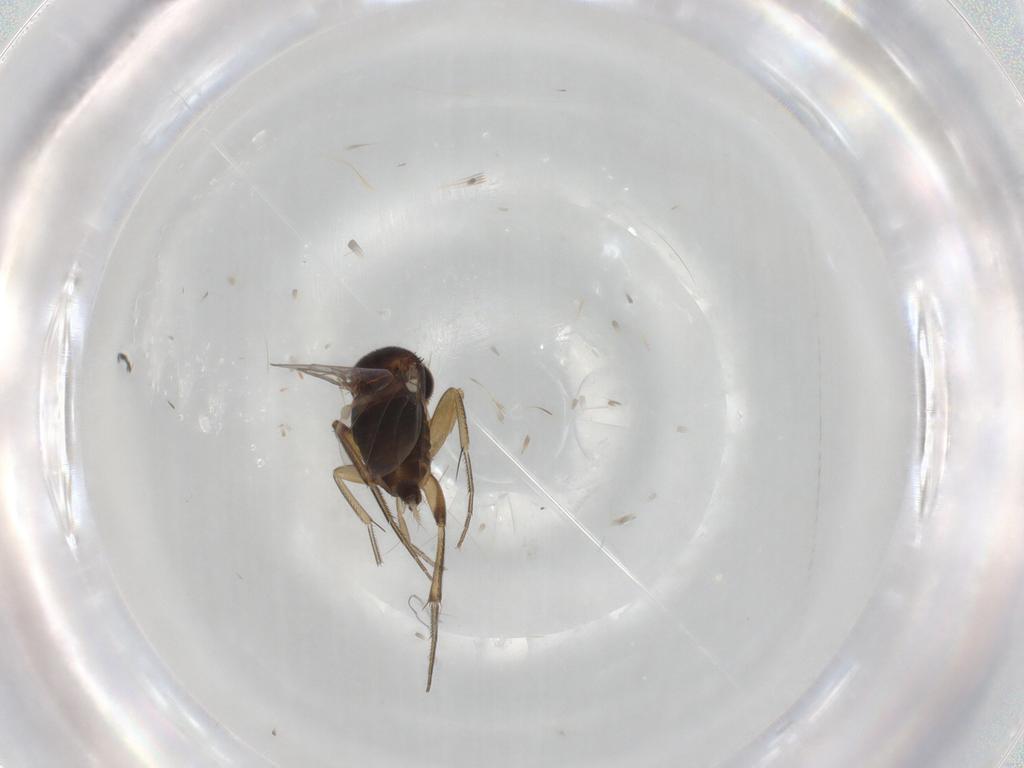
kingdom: Animalia
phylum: Arthropoda
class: Insecta
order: Diptera
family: Phoridae
